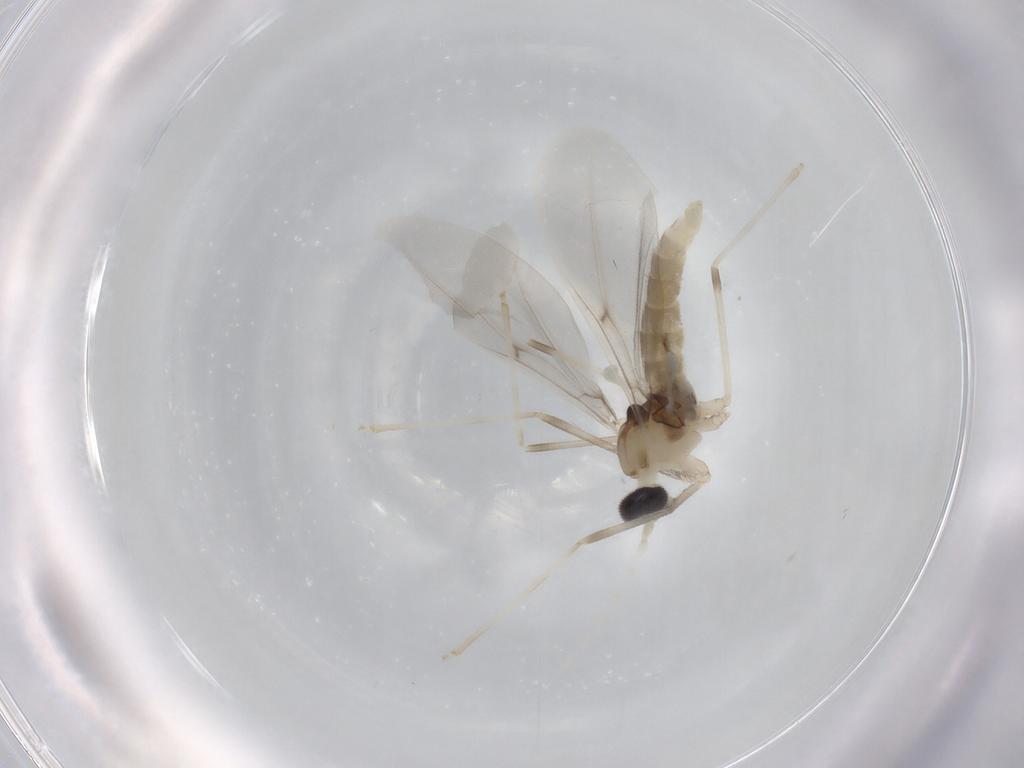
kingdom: Animalia
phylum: Arthropoda
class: Insecta
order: Diptera
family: Cecidomyiidae
